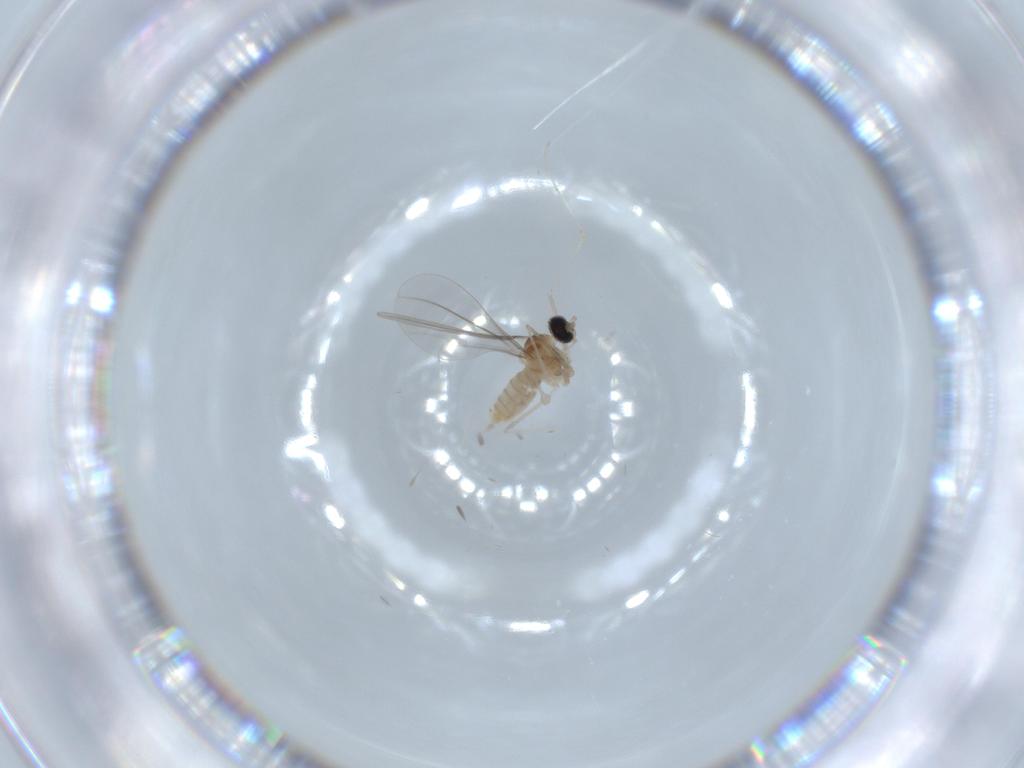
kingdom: Animalia
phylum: Arthropoda
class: Insecta
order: Diptera
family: Cecidomyiidae
